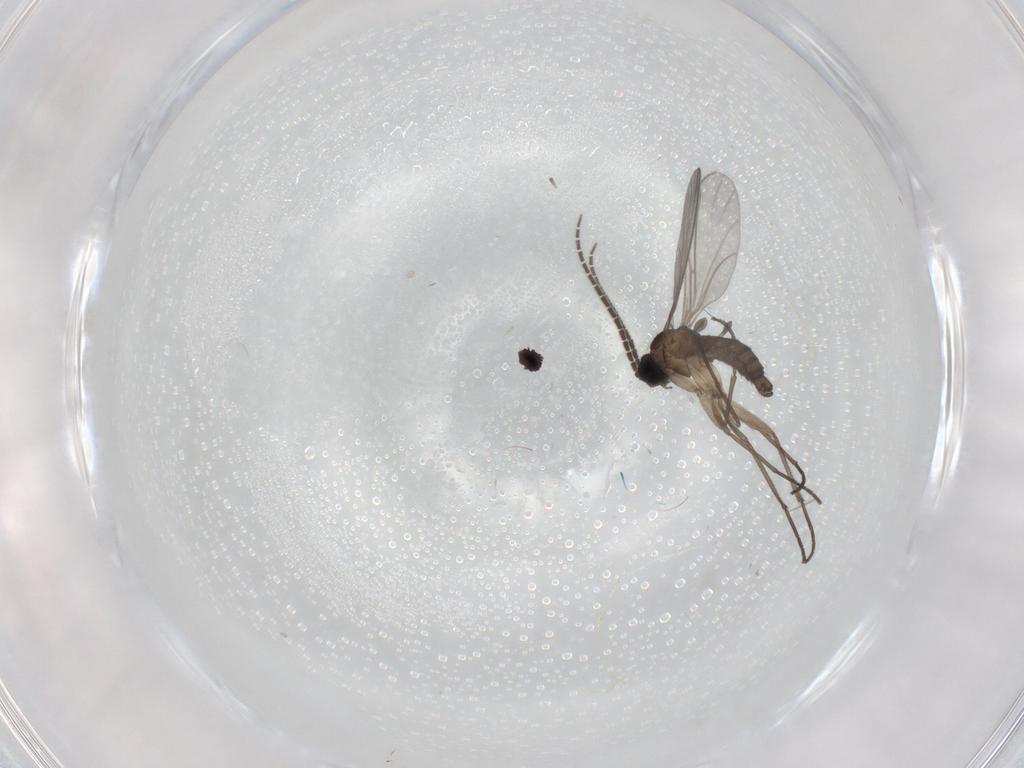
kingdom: Animalia
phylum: Arthropoda
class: Insecta
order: Diptera
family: Sciaridae
